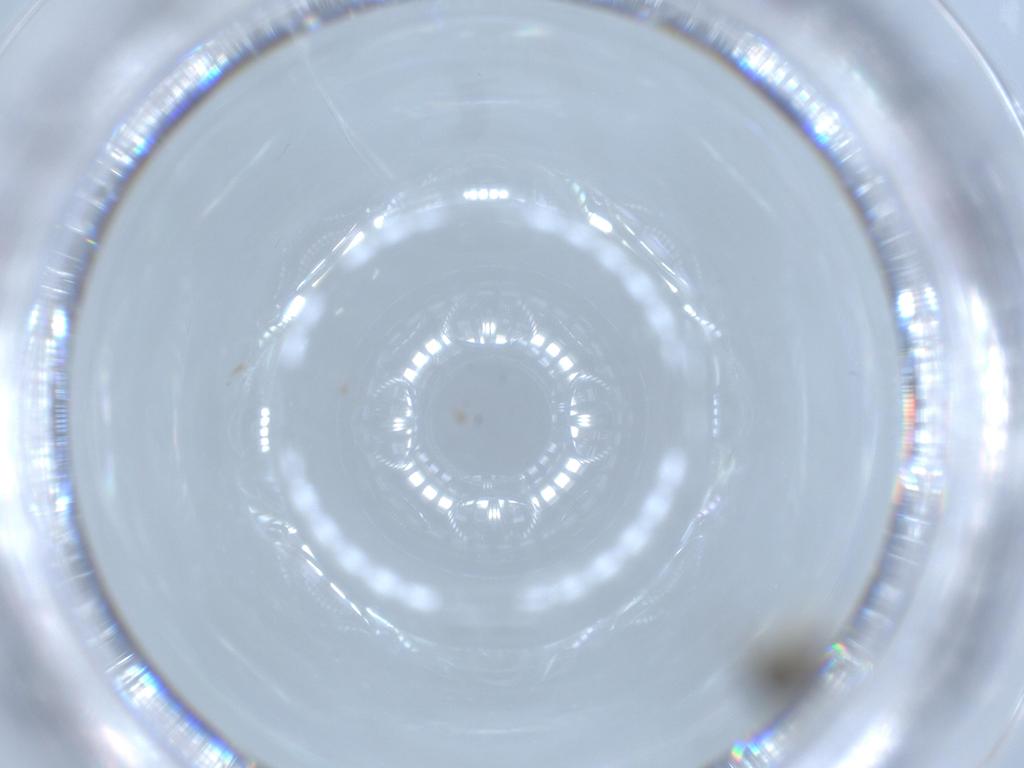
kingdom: Animalia
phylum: Arthropoda
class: Insecta
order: Hymenoptera
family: Figitidae
